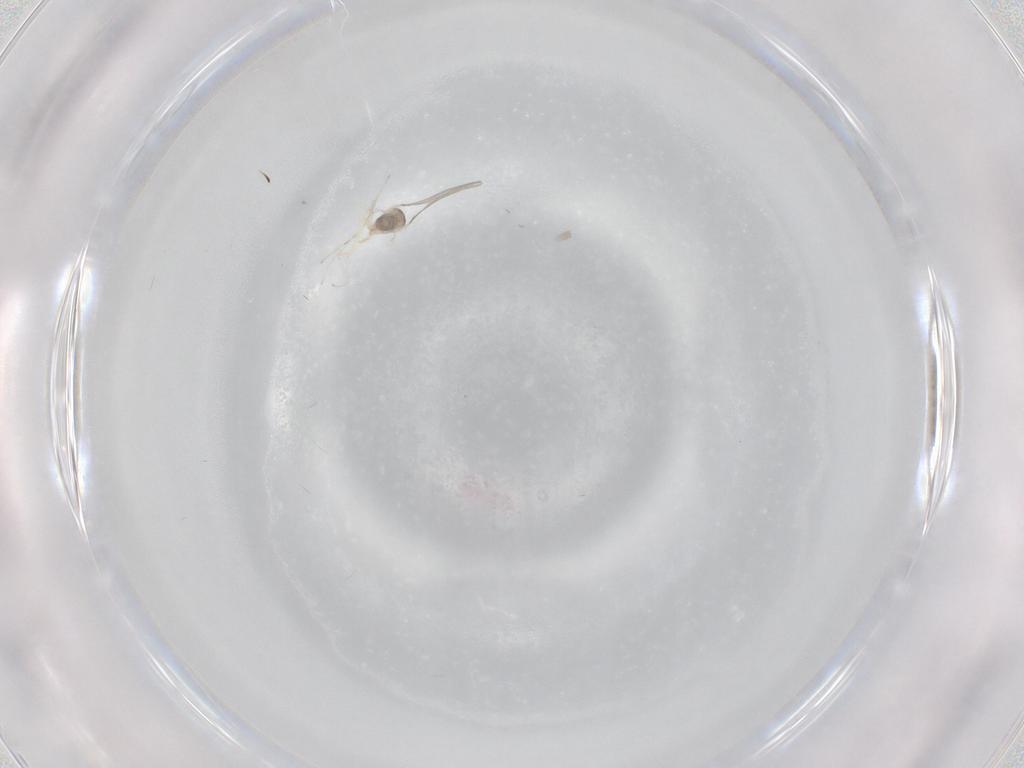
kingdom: Animalia
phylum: Arthropoda
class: Insecta
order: Diptera
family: Cecidomyiidae
